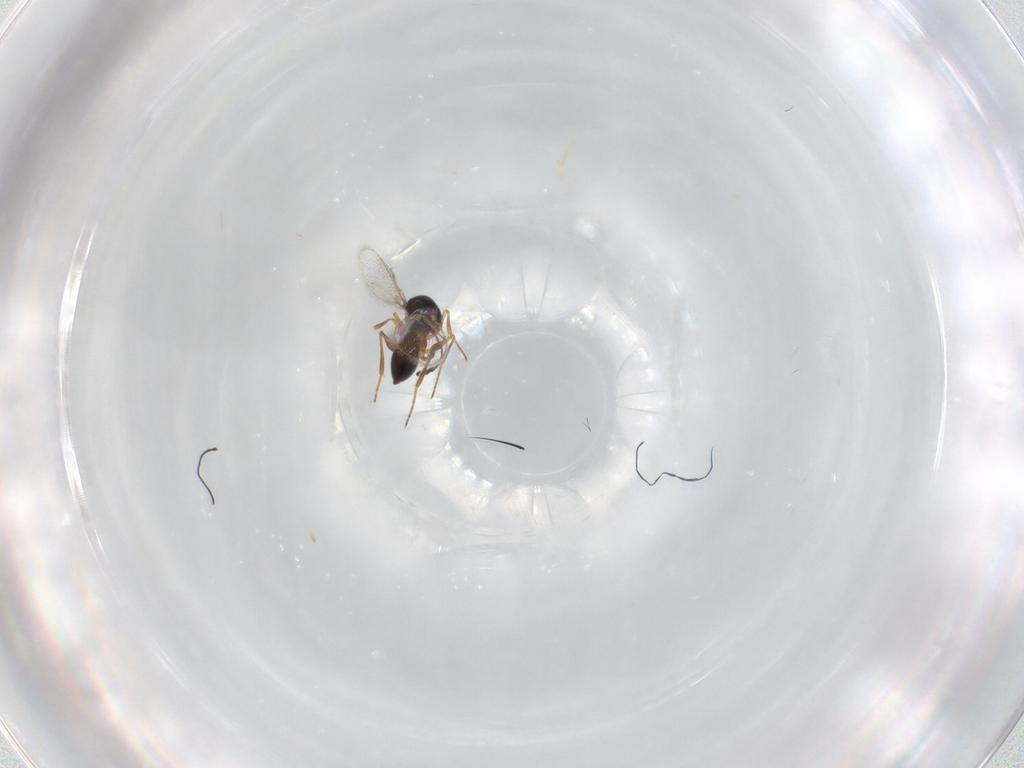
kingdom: Animalia
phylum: Arthropoda
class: Insecta
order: Hymenoptera
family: Figitidae
